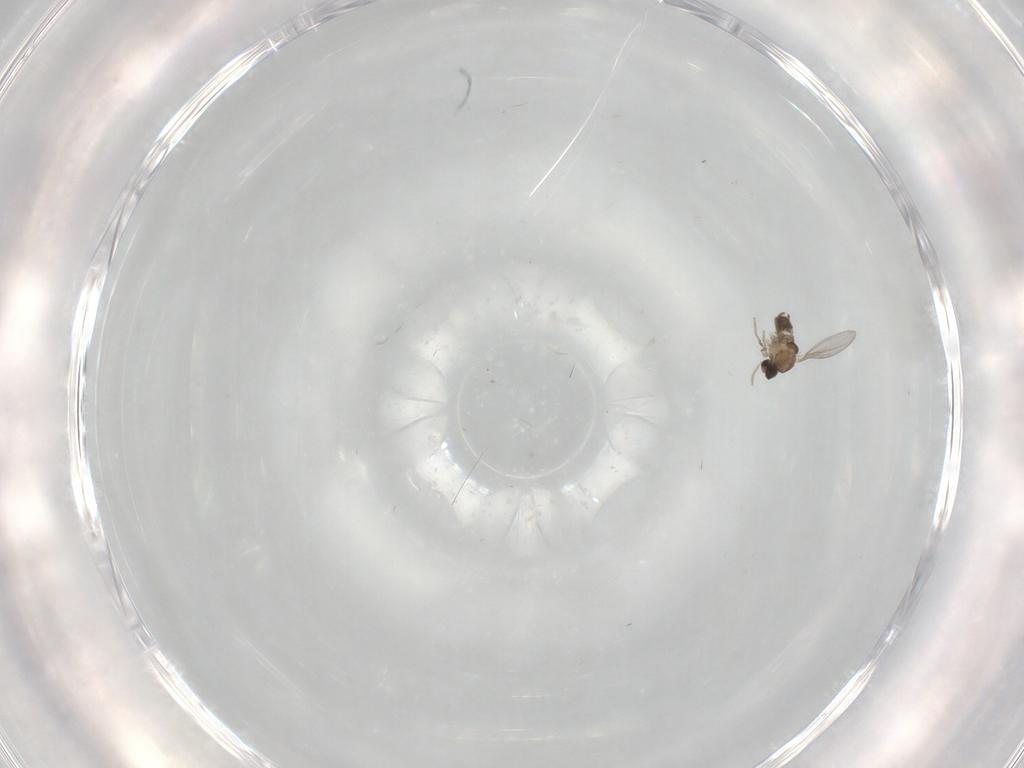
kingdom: Animalia
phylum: Arthropoda
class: Insecta
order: Diptera
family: Cecidomyiidae
